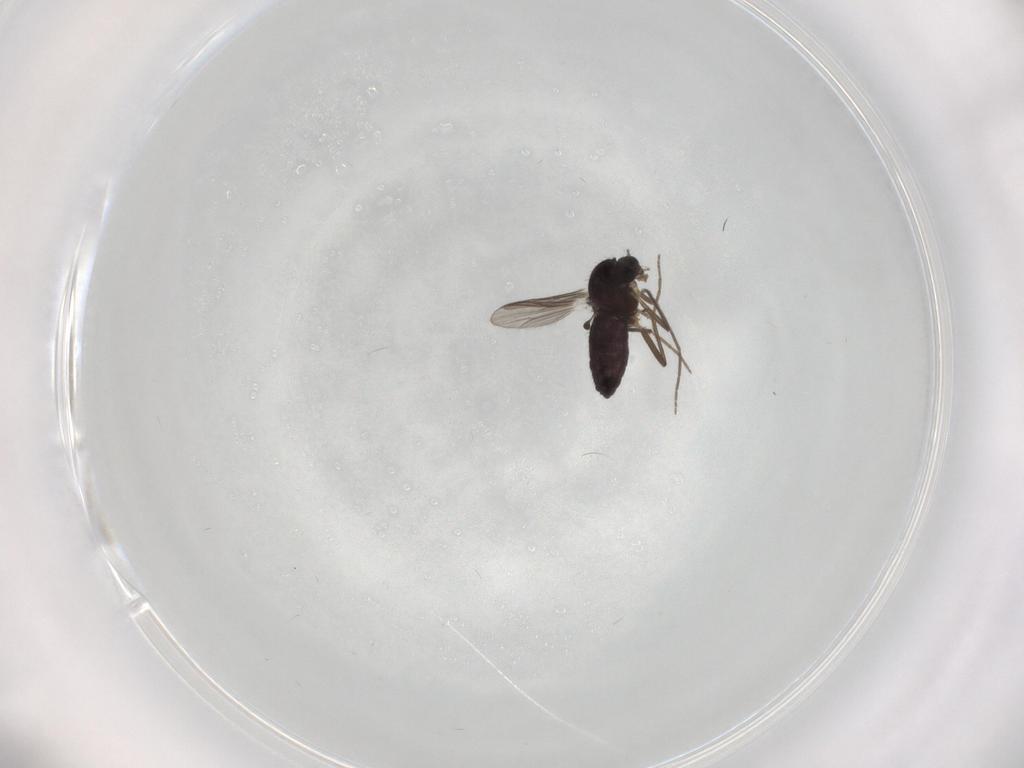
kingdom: Animalia
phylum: Arthropoda
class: Insecta
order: Diptera
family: Chironomidae
